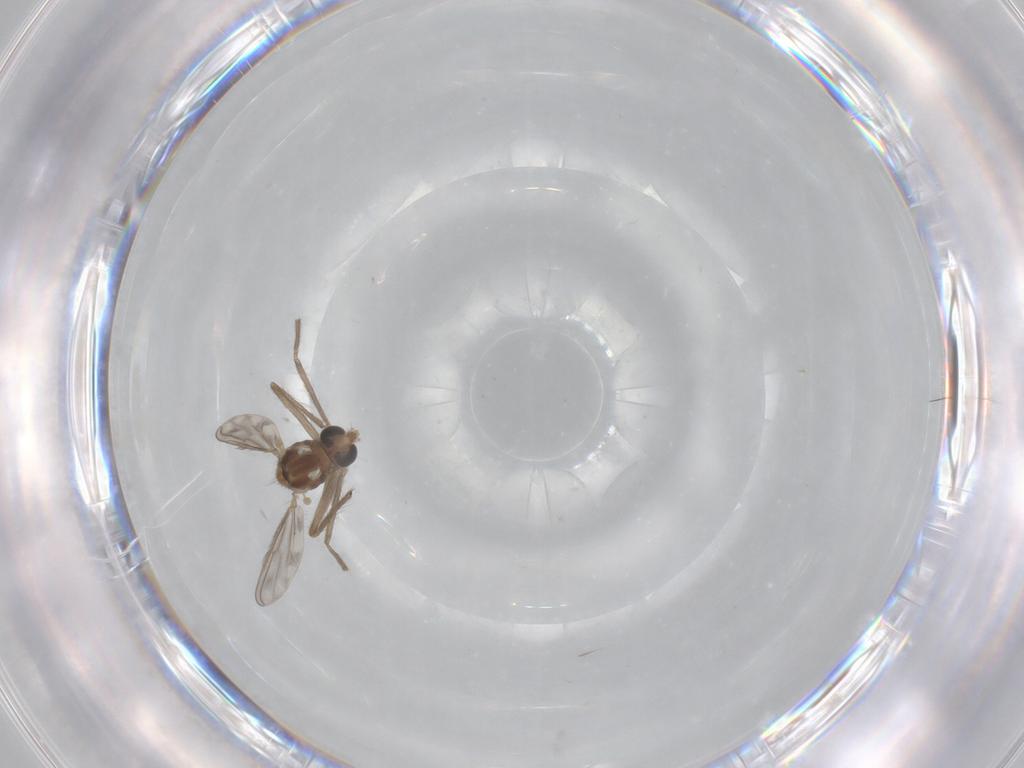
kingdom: Animalia
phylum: Arthropoda
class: Insecta
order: Diptera
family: Chironomidae
